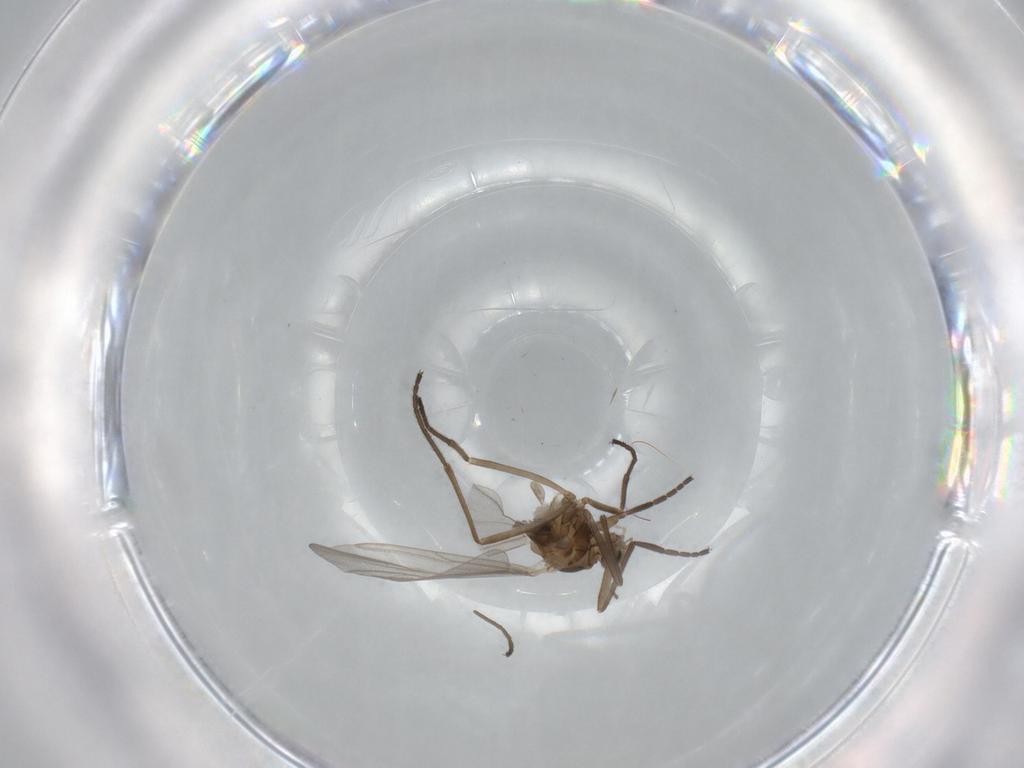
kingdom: Animalia
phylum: Arthropoda
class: Insecta
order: Diptera
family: Cecidomyiidae
